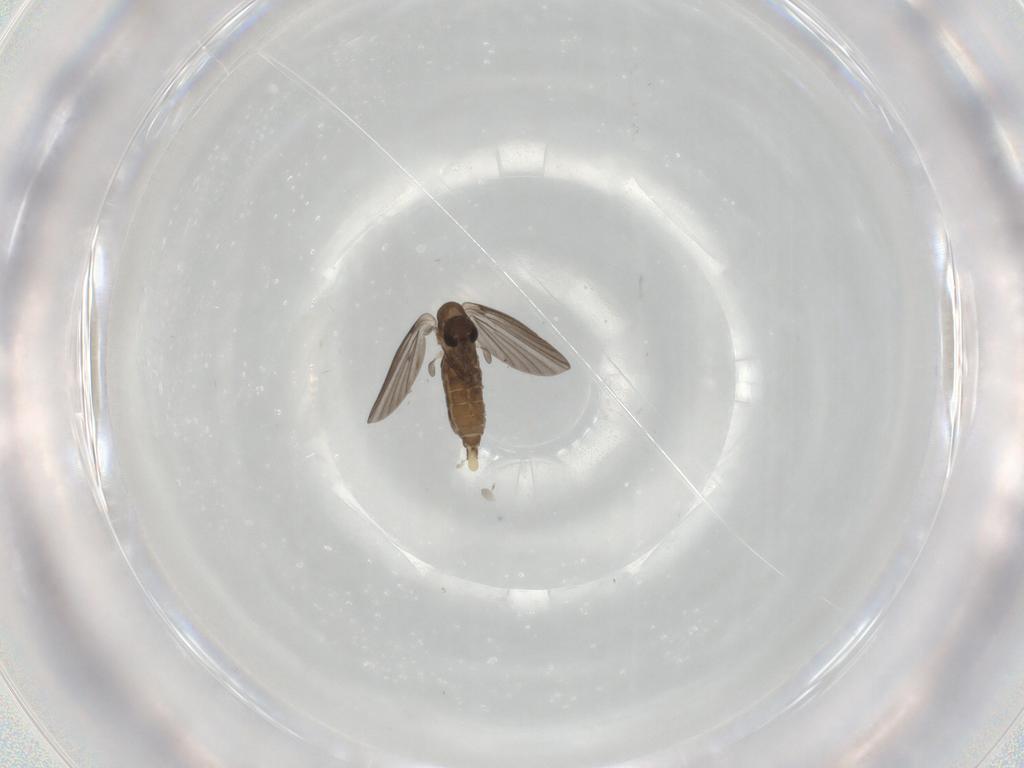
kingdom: Animalia
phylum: Arthropoda
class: Insecta
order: Diptera
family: Cecidomyiidae
